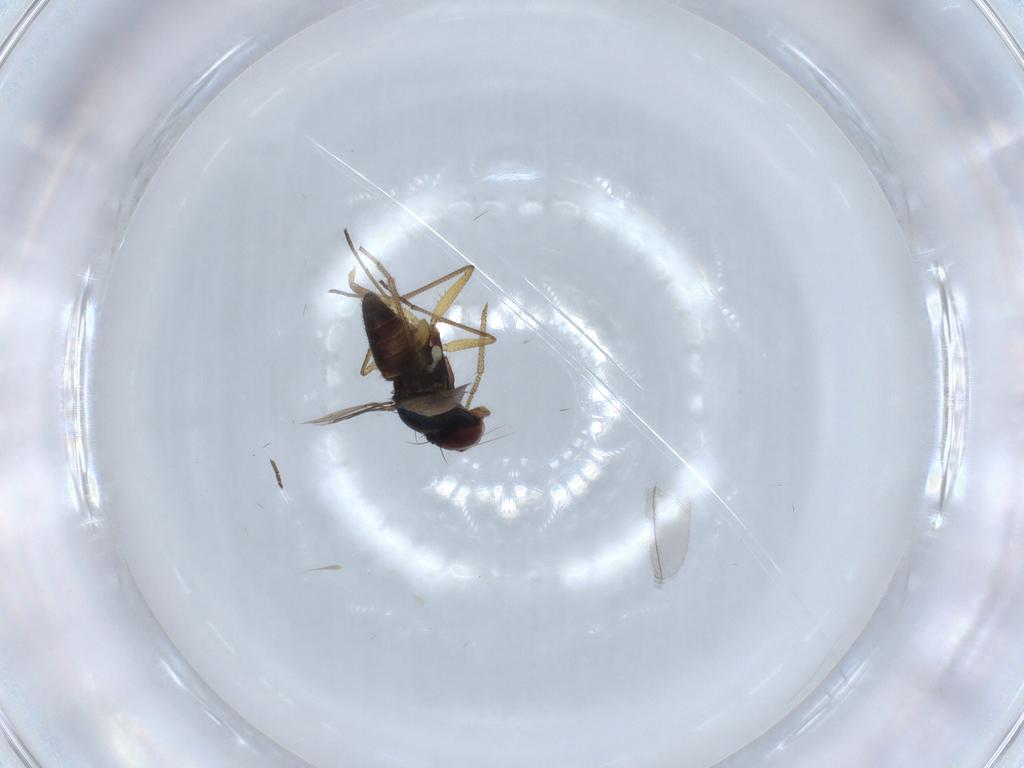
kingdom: Animalia
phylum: Arthropoda
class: Insecta
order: Diptera
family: Dolichopodidae
